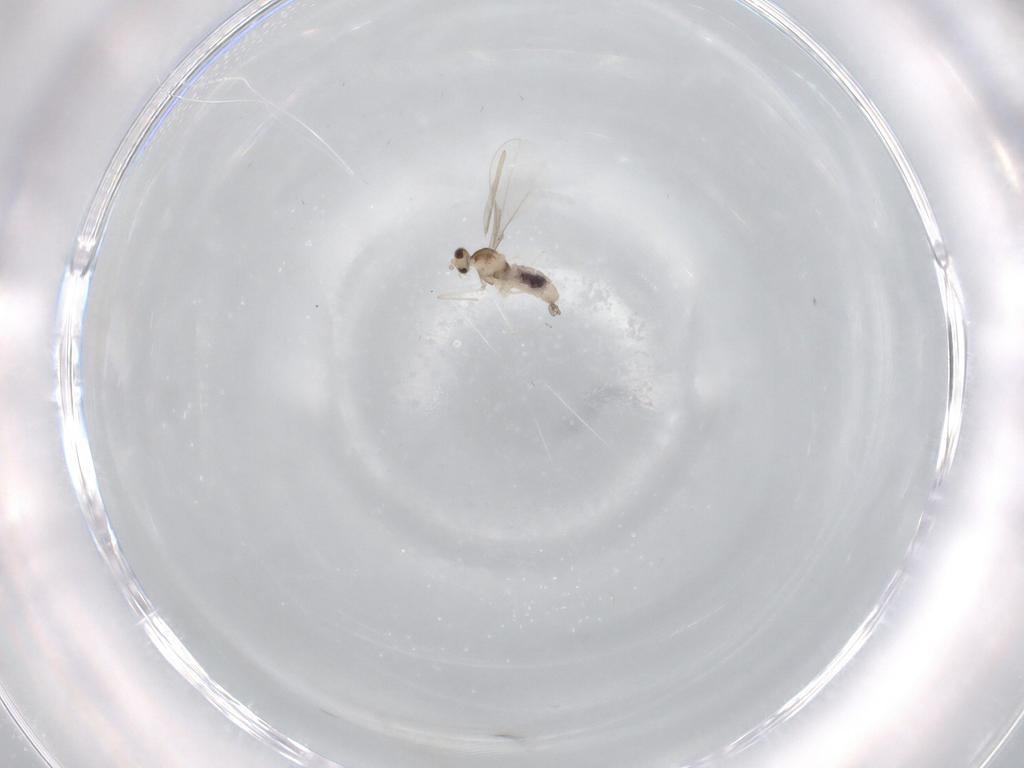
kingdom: Animalia
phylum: Arthropoda
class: Insecta
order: Diptera
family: Cecidomyiidae
